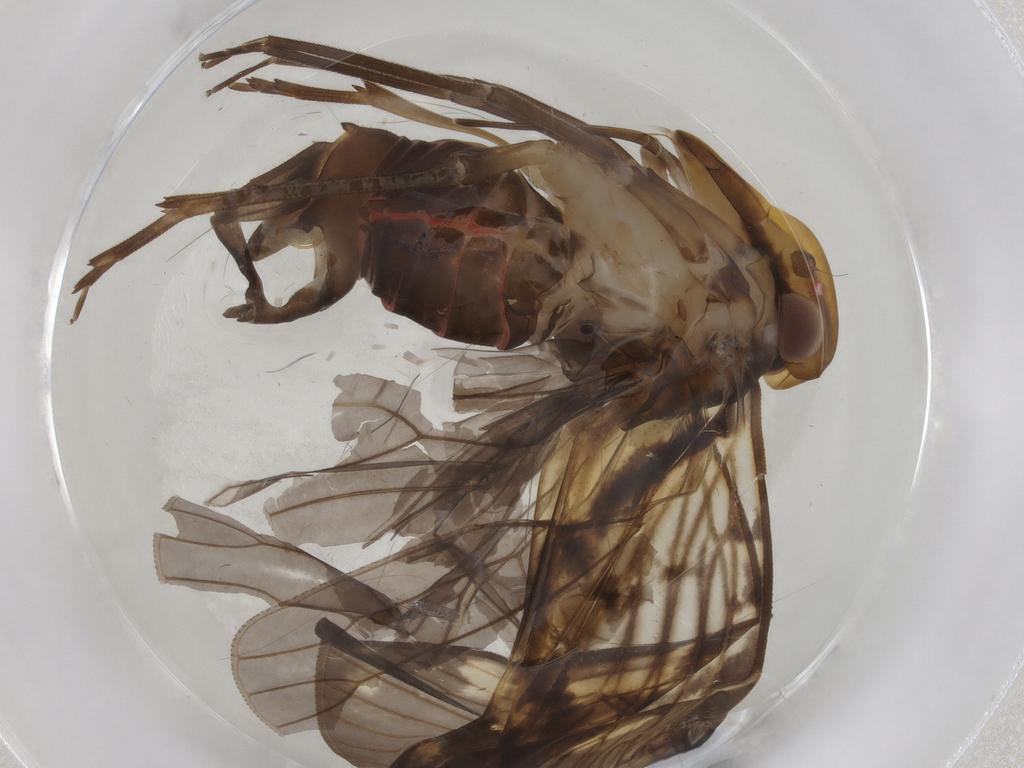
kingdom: Animalia
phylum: Arthropoda
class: Insecta
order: Hemiptera
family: Cixiidae
